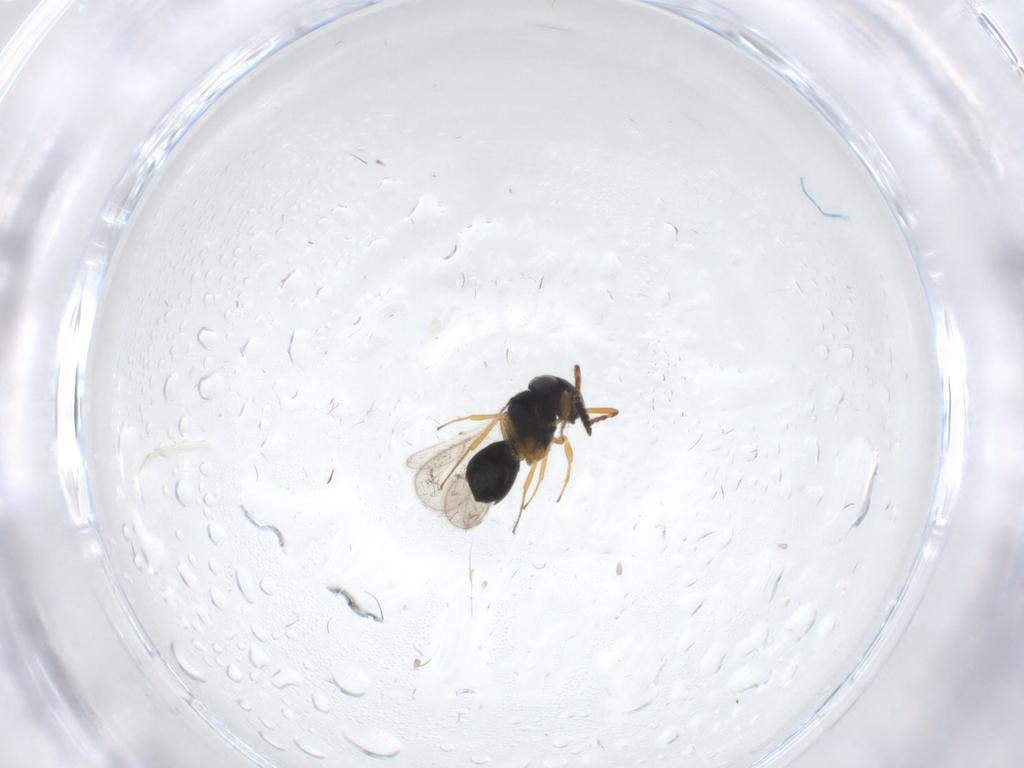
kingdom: Animalia
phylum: Arthropoda
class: Insecta
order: Hymenoptera
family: Scelionidae
